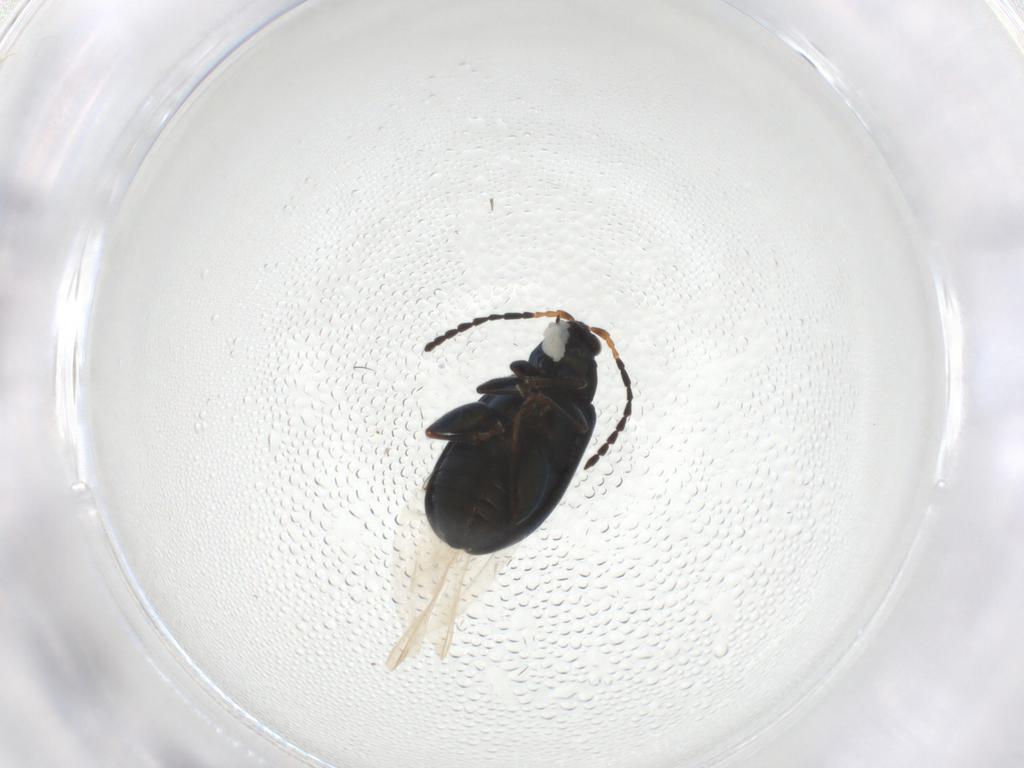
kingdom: Animalia
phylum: Arthropoda
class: Insecta
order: Coleoptera
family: Chrysomelidae
